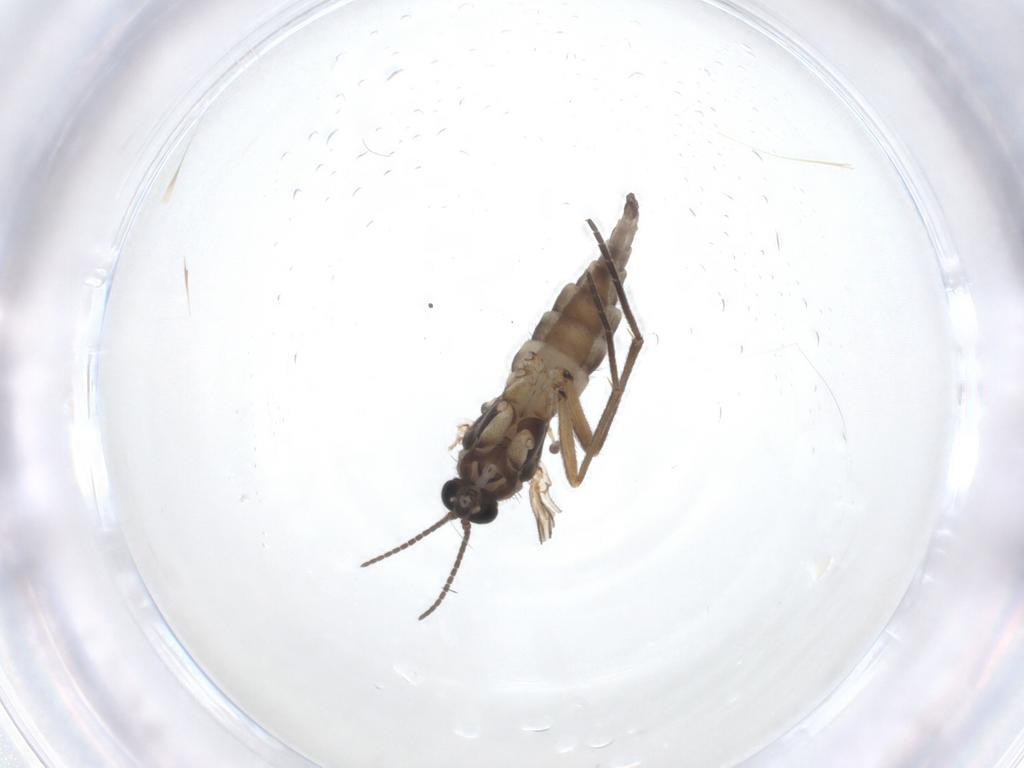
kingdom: Animalia
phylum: Arthropoda
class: Insecta
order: Diptera
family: Sciaridae
